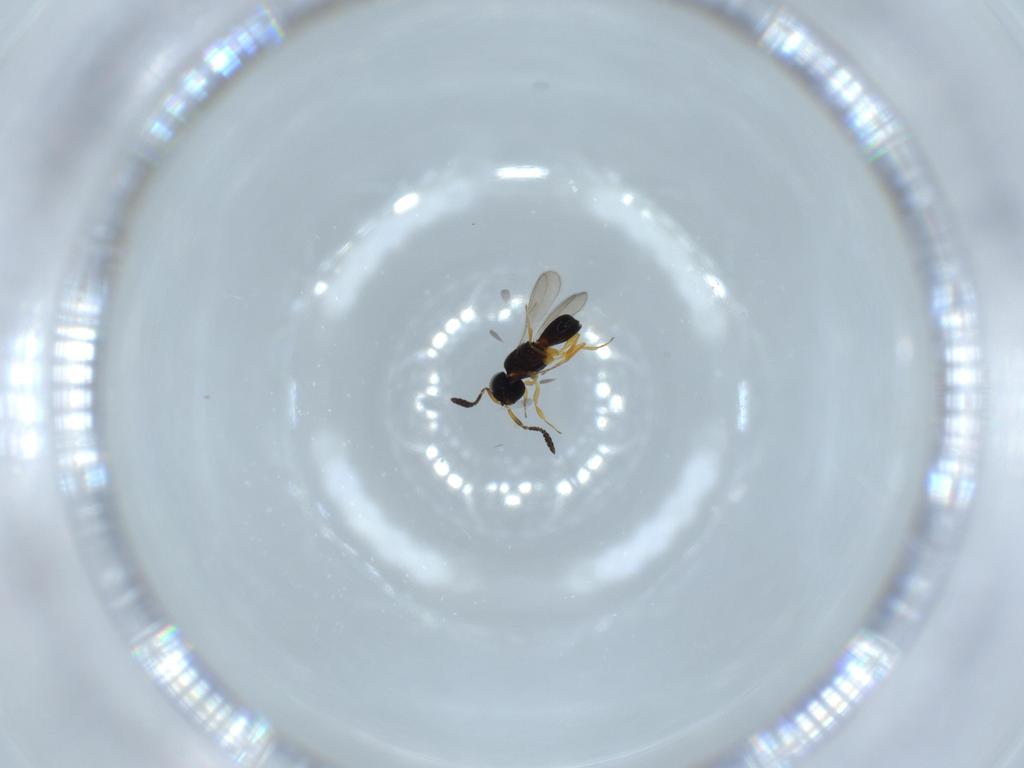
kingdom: Animalia
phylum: Arthropoda
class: Insecta
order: Hymenoptera
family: Scelionidae
